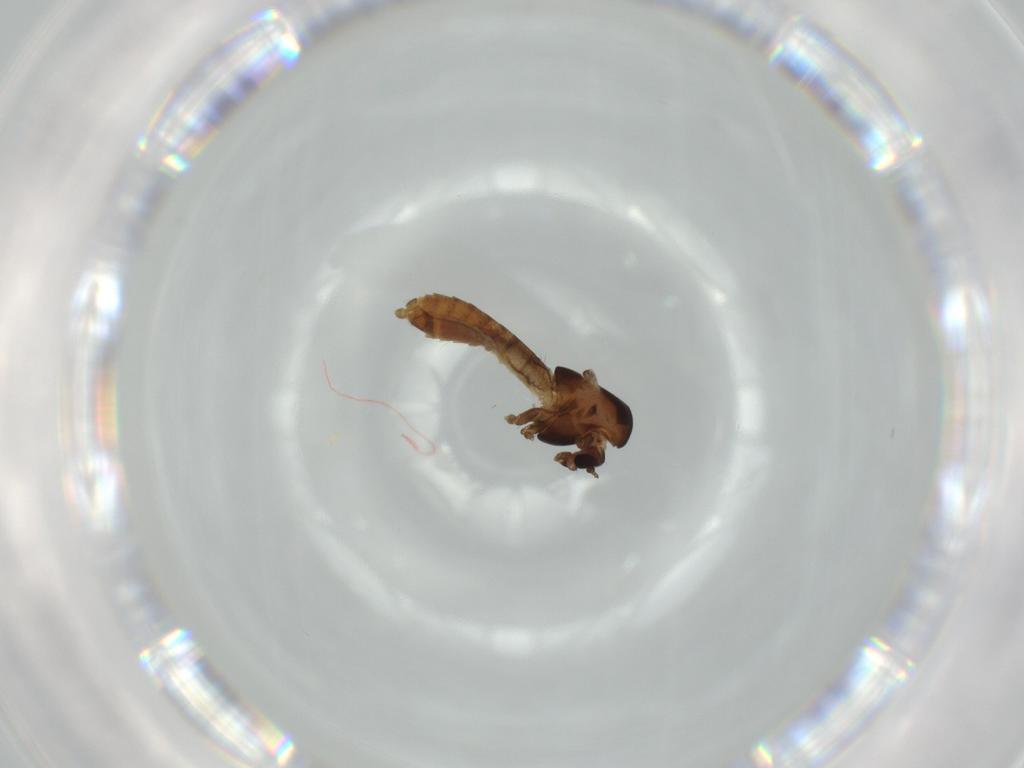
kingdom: Animalia
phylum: Arthropoda
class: Insecta
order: Diptera
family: Chironomidae
